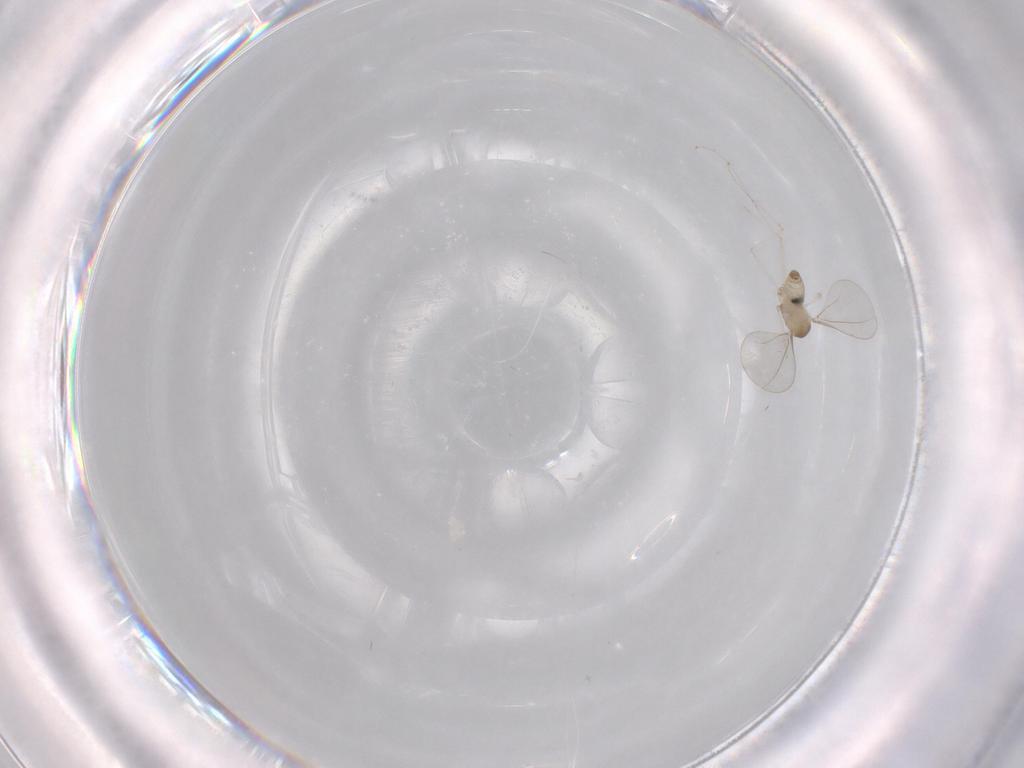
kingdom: Animalia
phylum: Arthropoda
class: Insecta
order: Diptera
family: Cecidomyiidae
